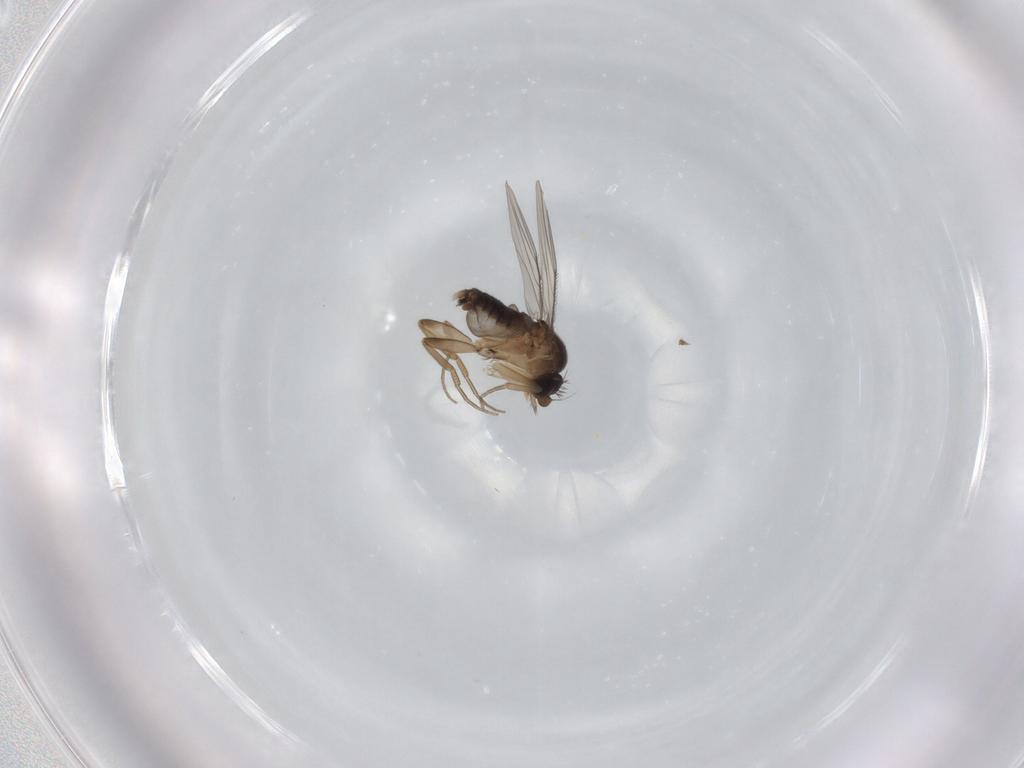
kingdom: Animalia
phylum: Arthropoda
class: Insecta
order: Diptera
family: Phoridae
